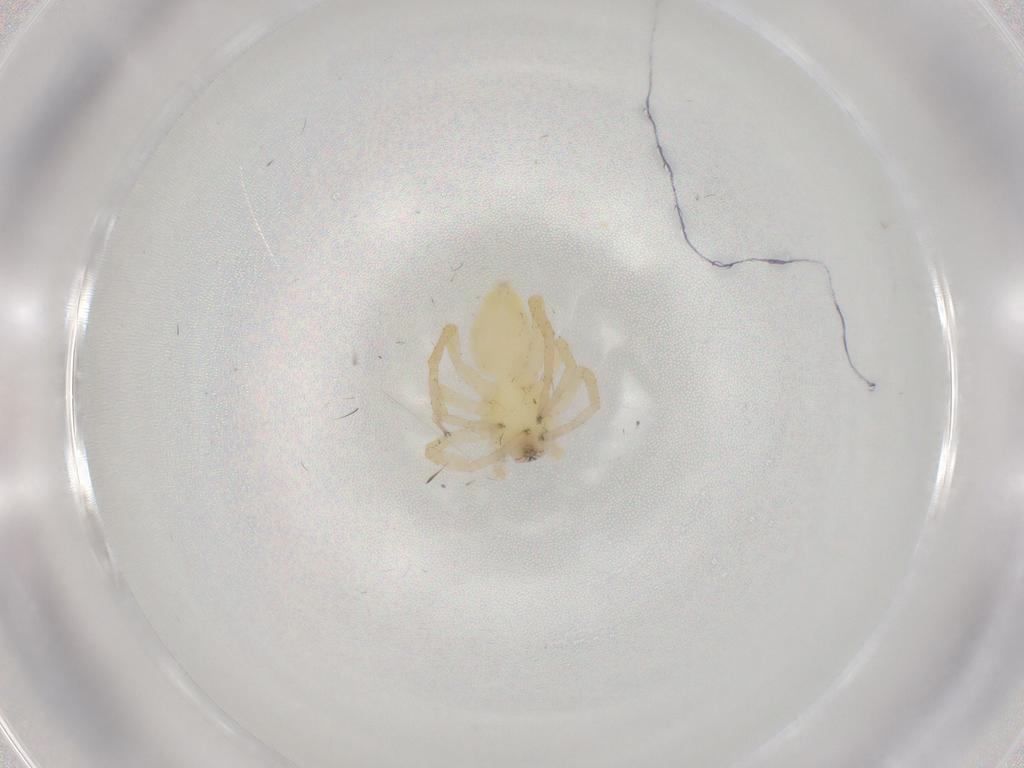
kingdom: Animalia
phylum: Arthropoda
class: Arachnida
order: Araneae
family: Anyphaenidae
